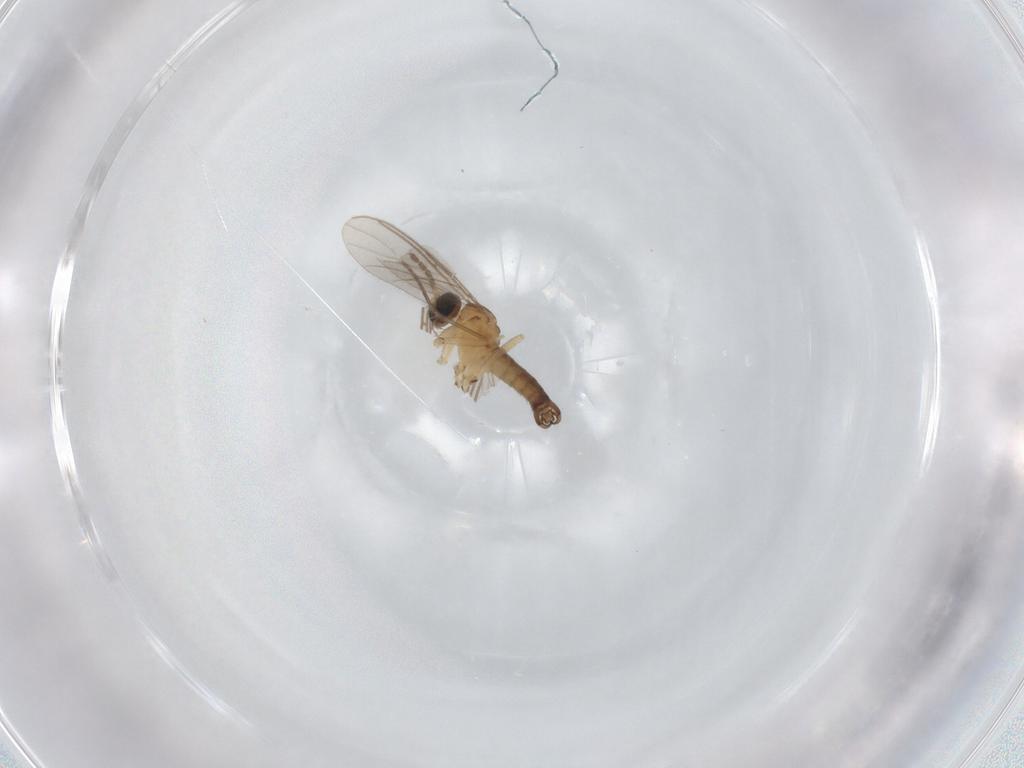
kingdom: Animalia
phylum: Arthropoda
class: Insecta
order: Diptera
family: Sciaridae
